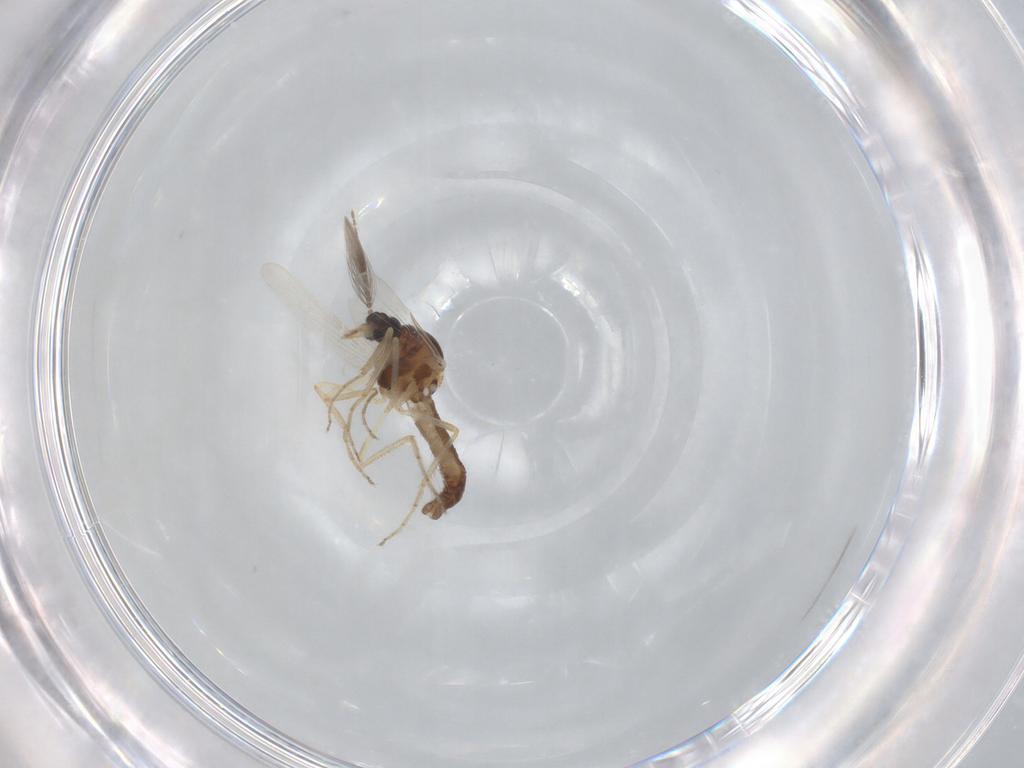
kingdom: Animalia
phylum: Arthropoda
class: Insecta
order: Diptera
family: Ceratopogonidae
